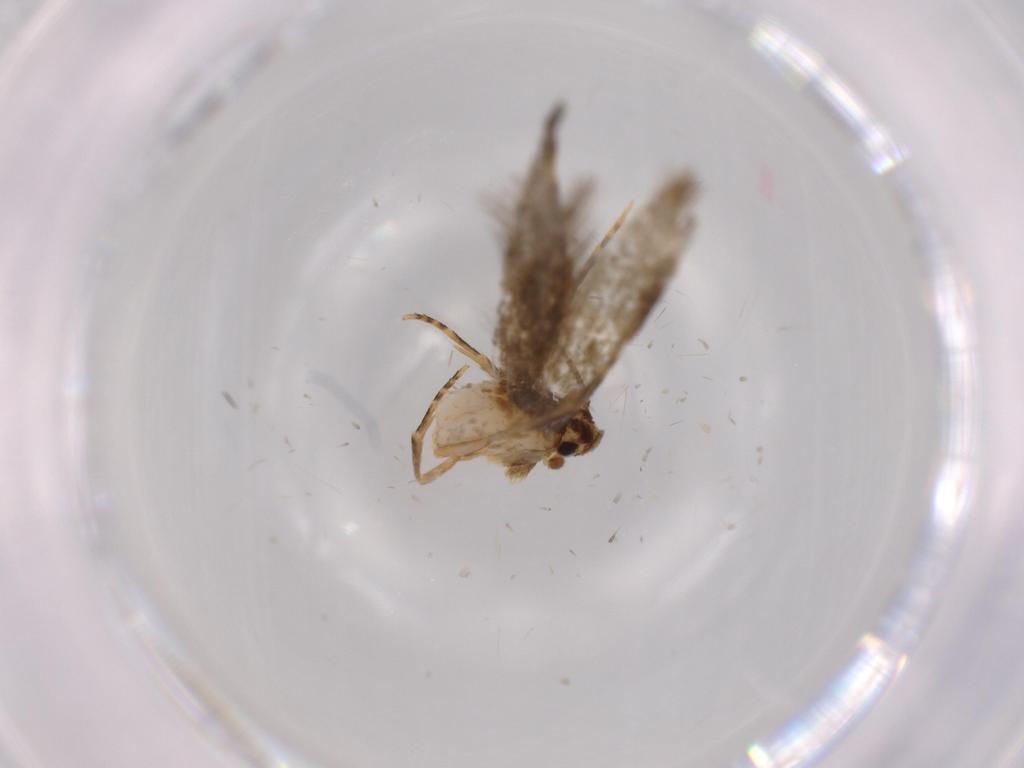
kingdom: Animalia
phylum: Arthropoda
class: Insecta
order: Lepidoptera
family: Tineidae
